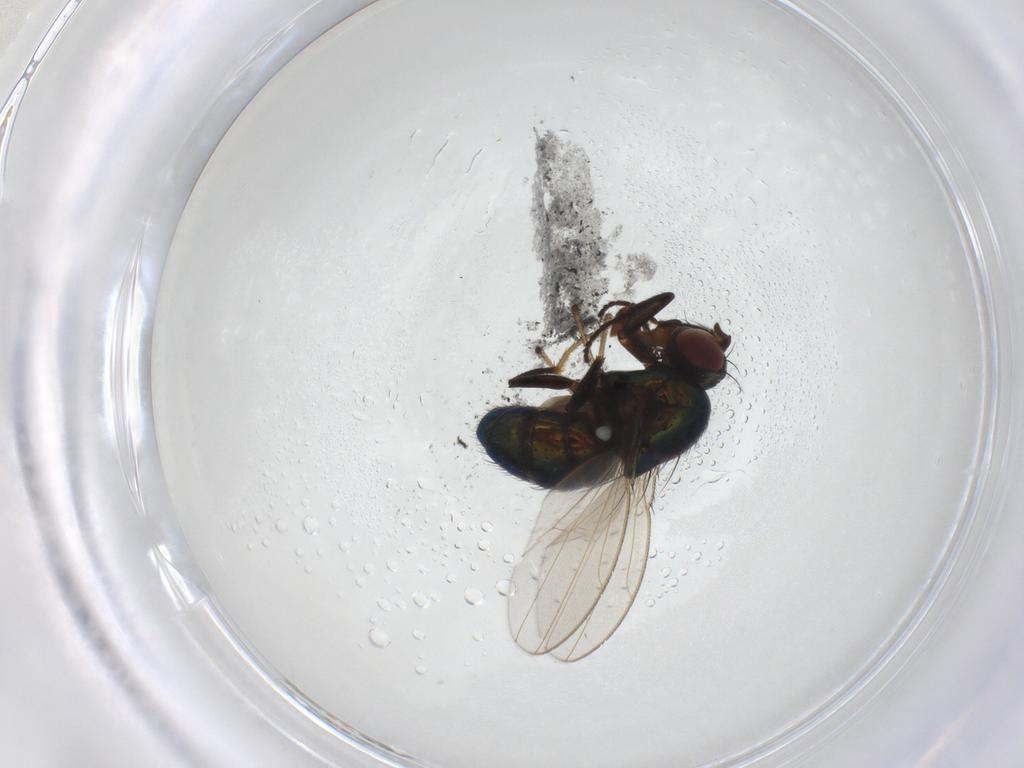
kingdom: Animalia
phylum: Arthropoda
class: Insecta
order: Diptera
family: Ephydridae
